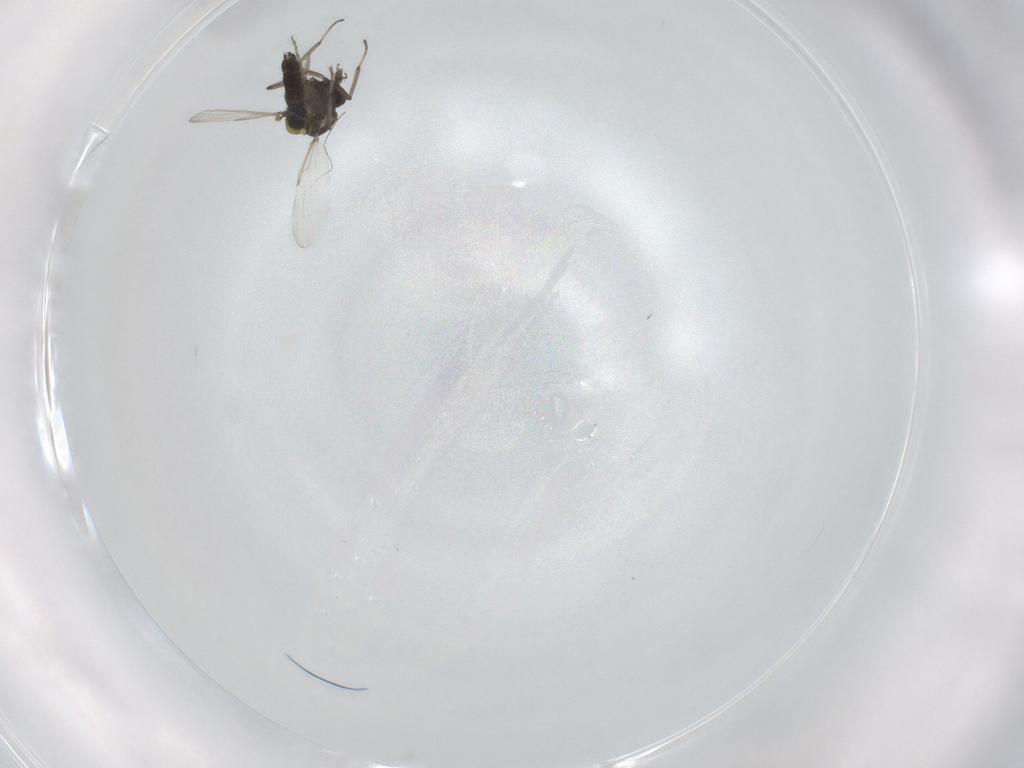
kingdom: Animalia
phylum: Arthropoda
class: Insecta
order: Diptera
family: Ceratopogonidae
